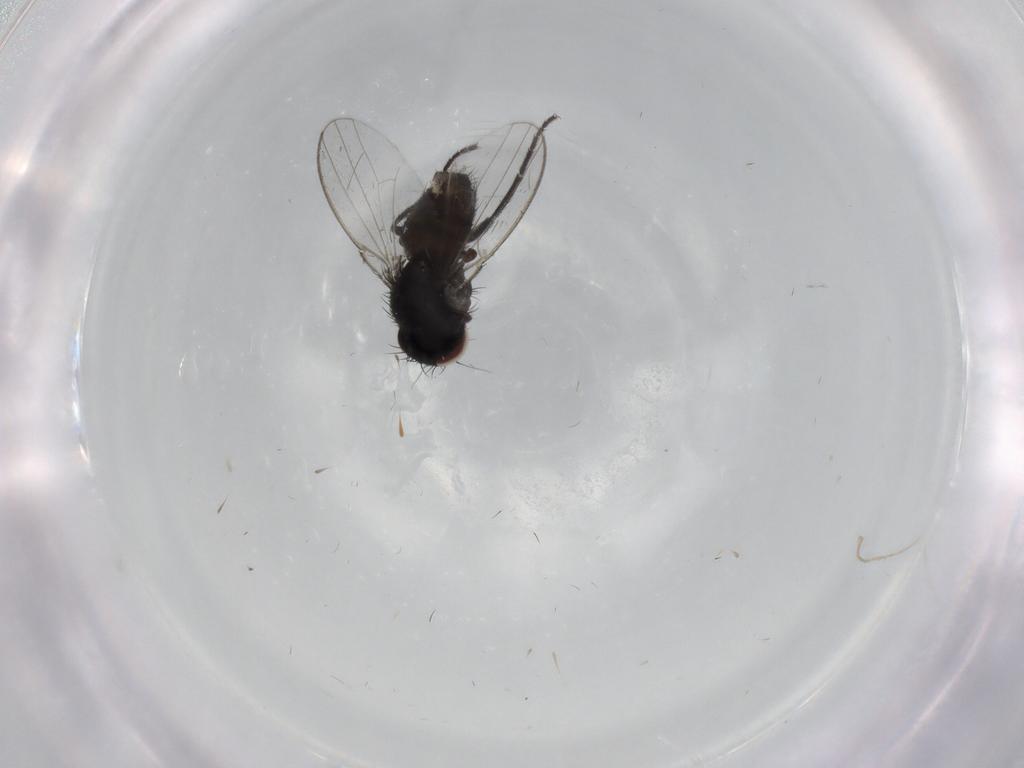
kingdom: Animalia
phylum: Arthropoda
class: Insecta
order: Diptera
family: Milichiidae
